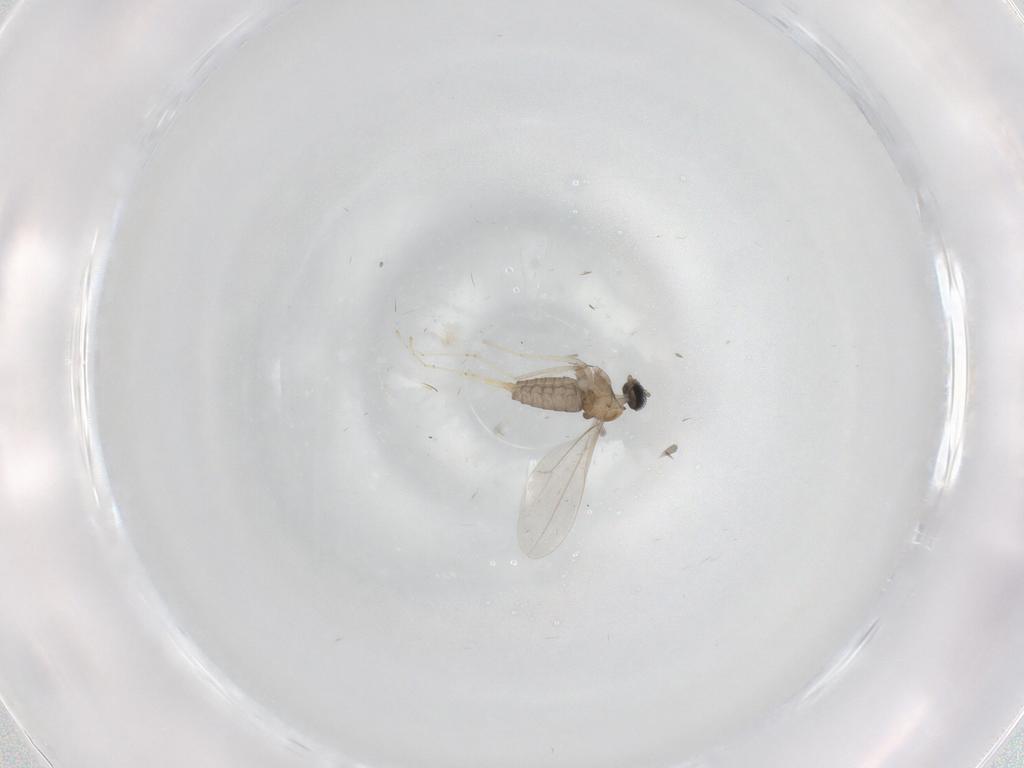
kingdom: Animalia
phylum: Arthropoda
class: Insecta
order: Diptera
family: Cecidomyiidae
